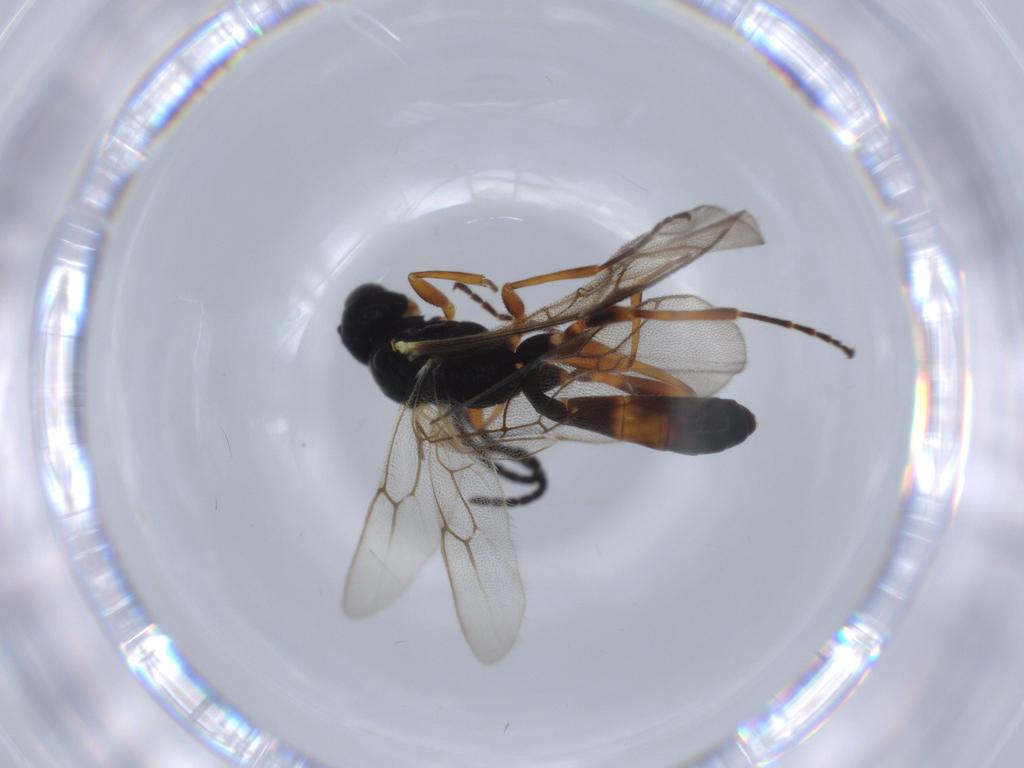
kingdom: Animalia
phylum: Arthropoda
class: Insecta
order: Hymenoptera
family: Ichneumonidae
